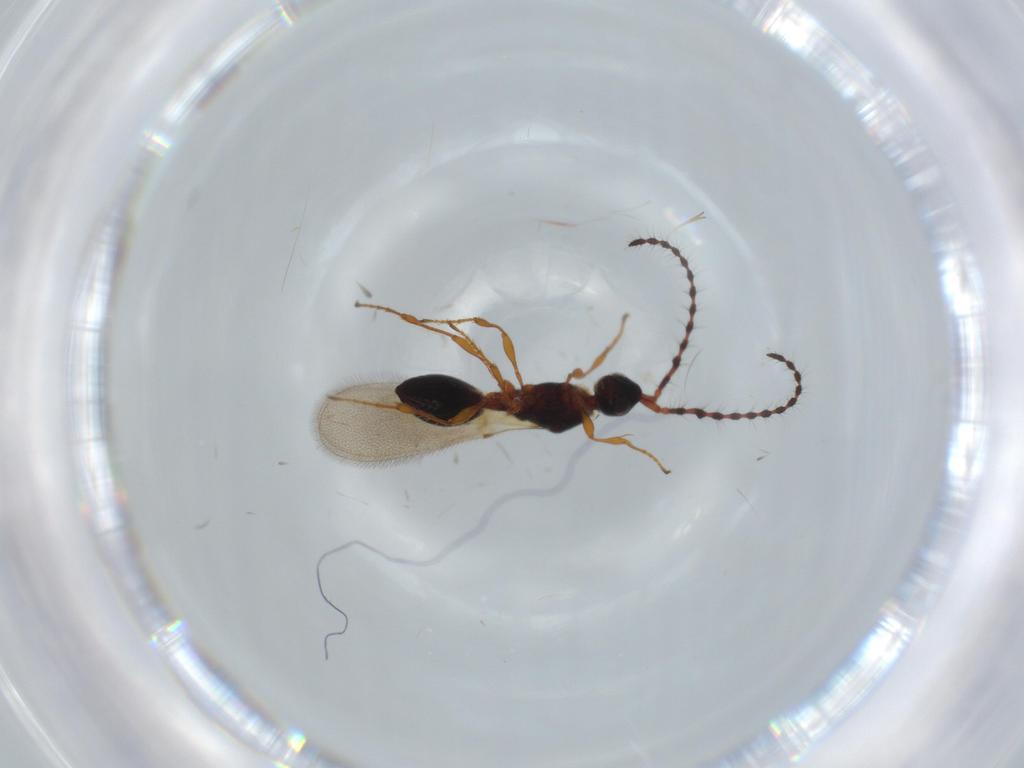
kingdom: Animalia
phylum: Arthropoda
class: Insecta
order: Hymenoptera
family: Diapriidae
